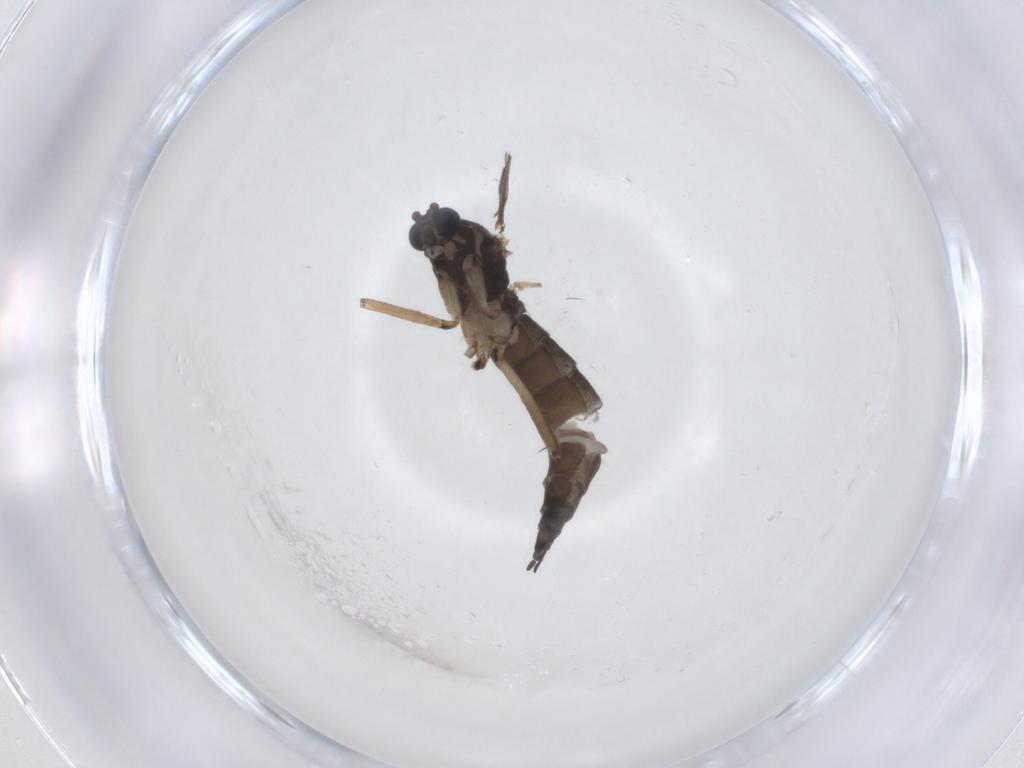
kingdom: Animalia
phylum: Arthropoda
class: Insecta
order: Diptera
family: Sciaridae
